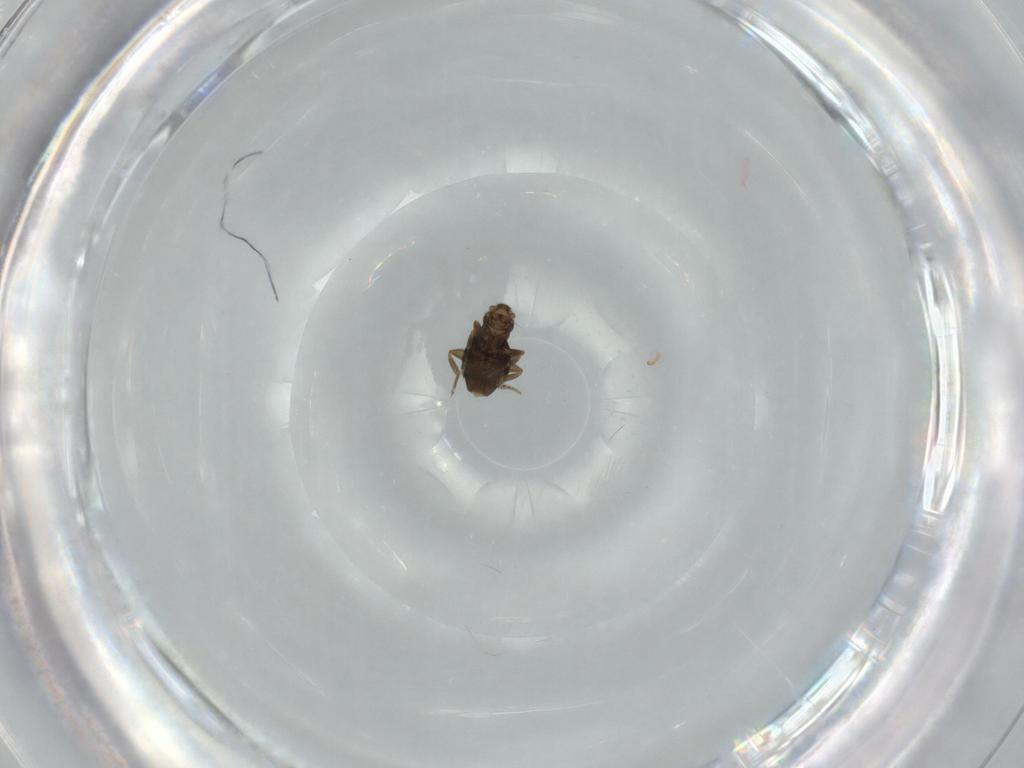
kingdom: Animalia
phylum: Arthropoda
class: Insecta
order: Diptera
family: Phoridae
